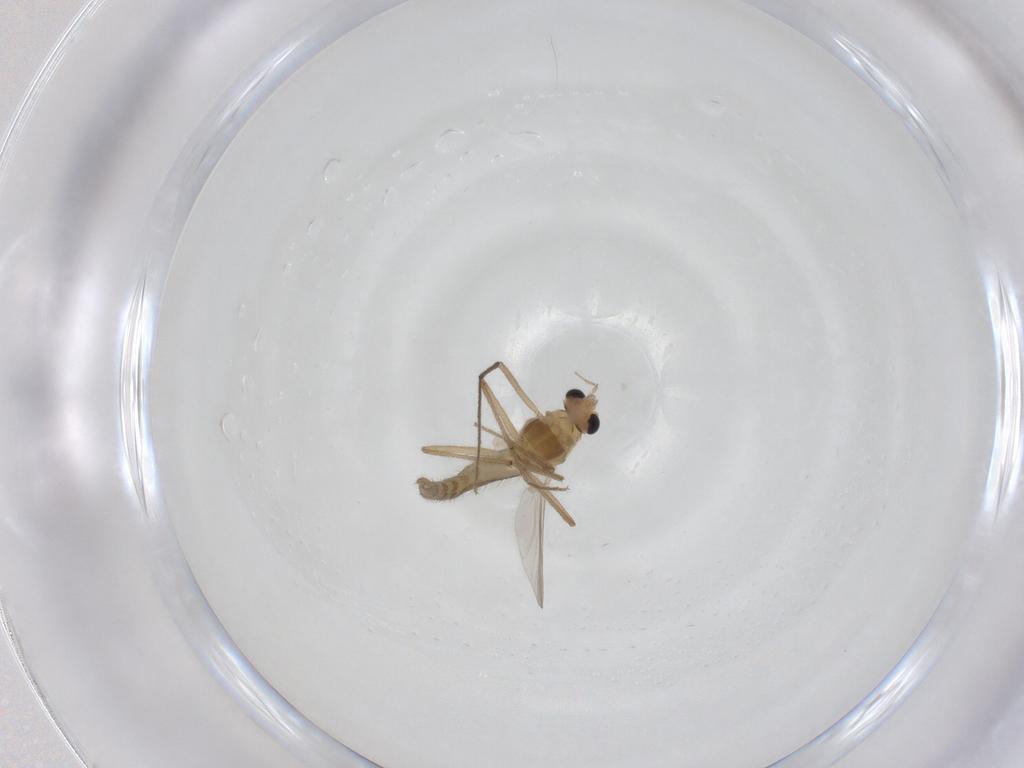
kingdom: Animalia
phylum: Arthropoda
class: Insecta
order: Diptera
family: Chironomidae
